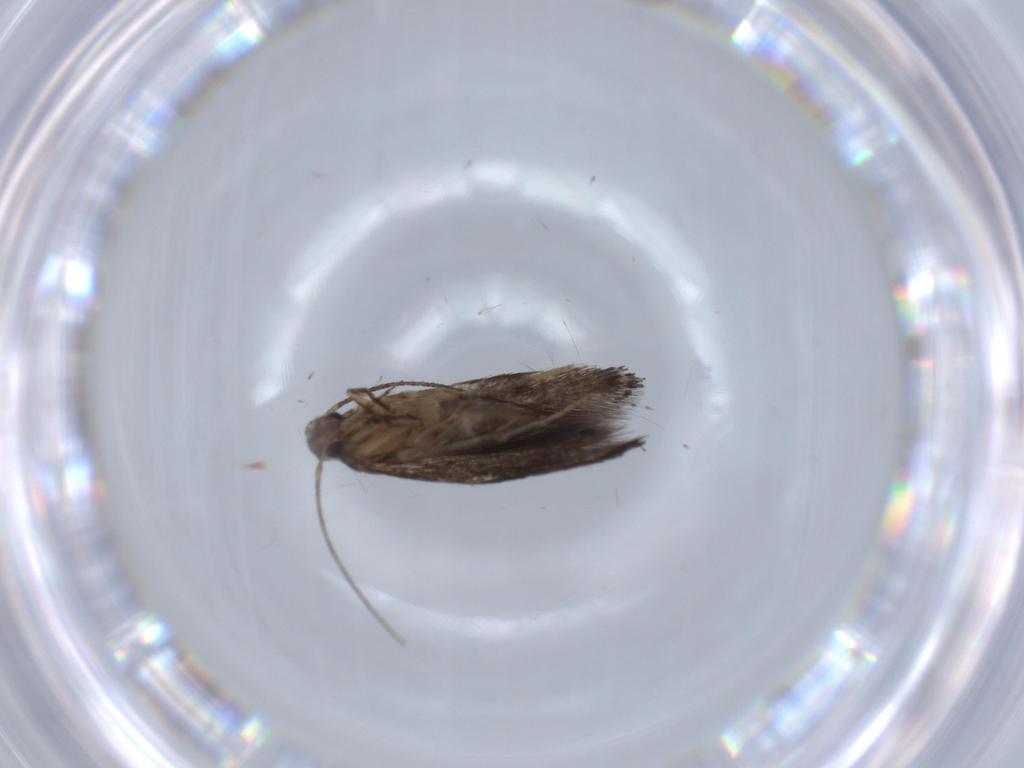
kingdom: Animalia
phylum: Arthropoda
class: Insecta
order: Lepidoptera
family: Gelechiidae
